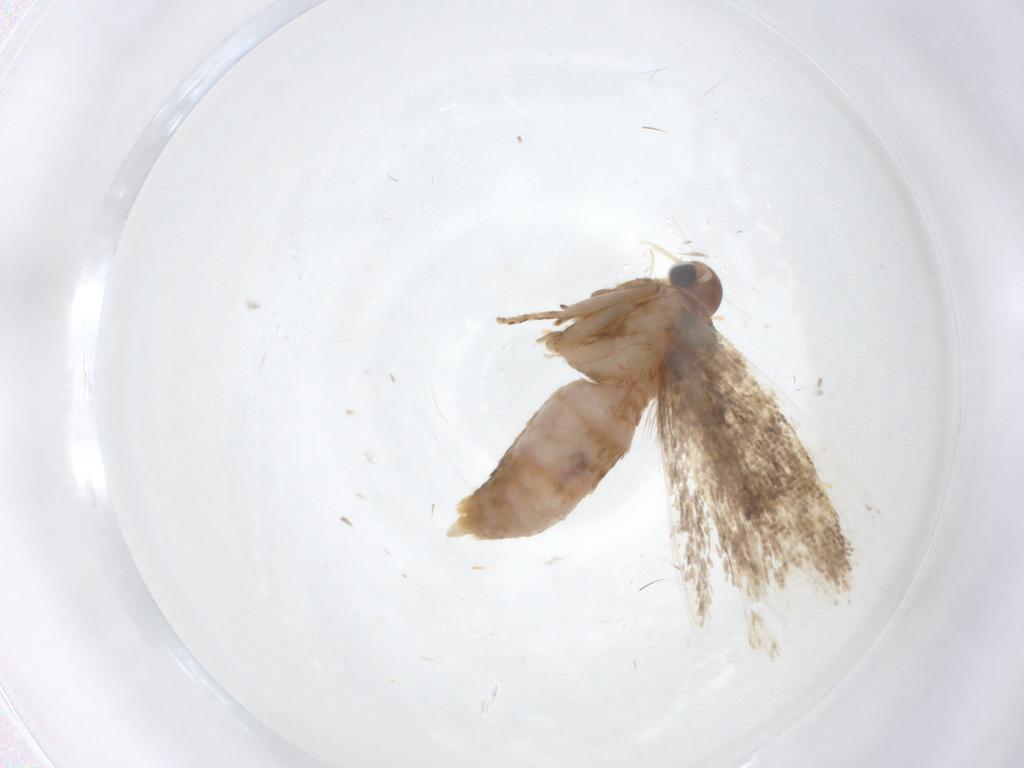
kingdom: Animalia
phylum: Arthropoda
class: Insecta
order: Lepidoptera
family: Gelechiidae
